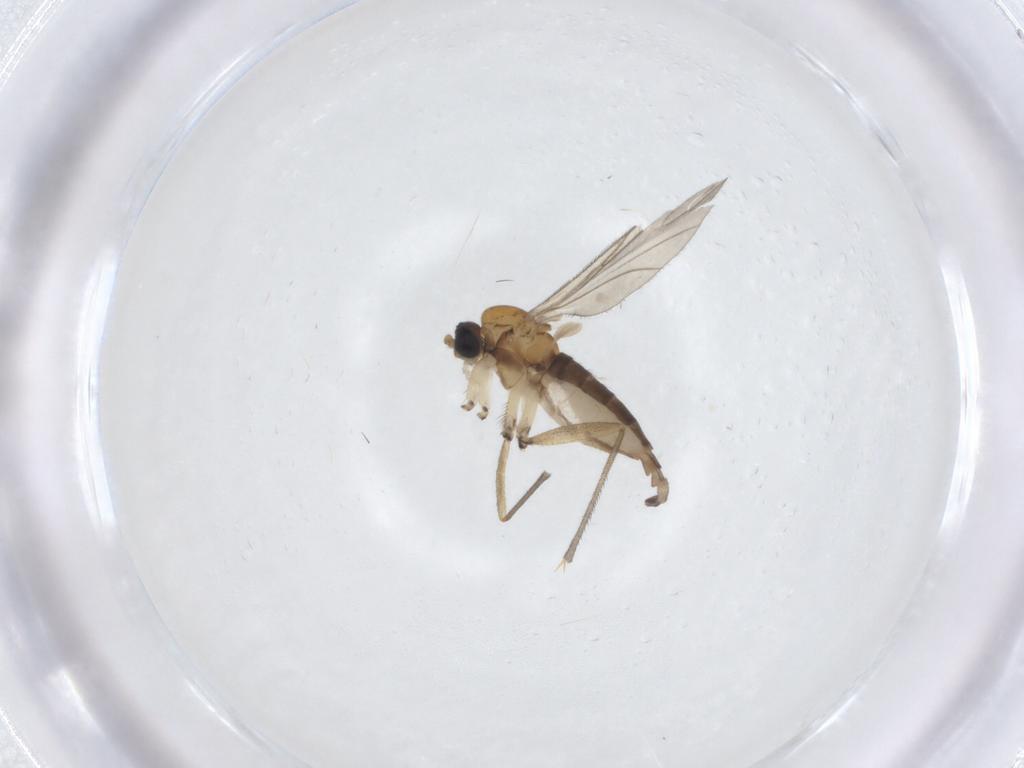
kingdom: Animalia
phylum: Arthropoda
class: Insecta
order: Diptera
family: Sciaridae
